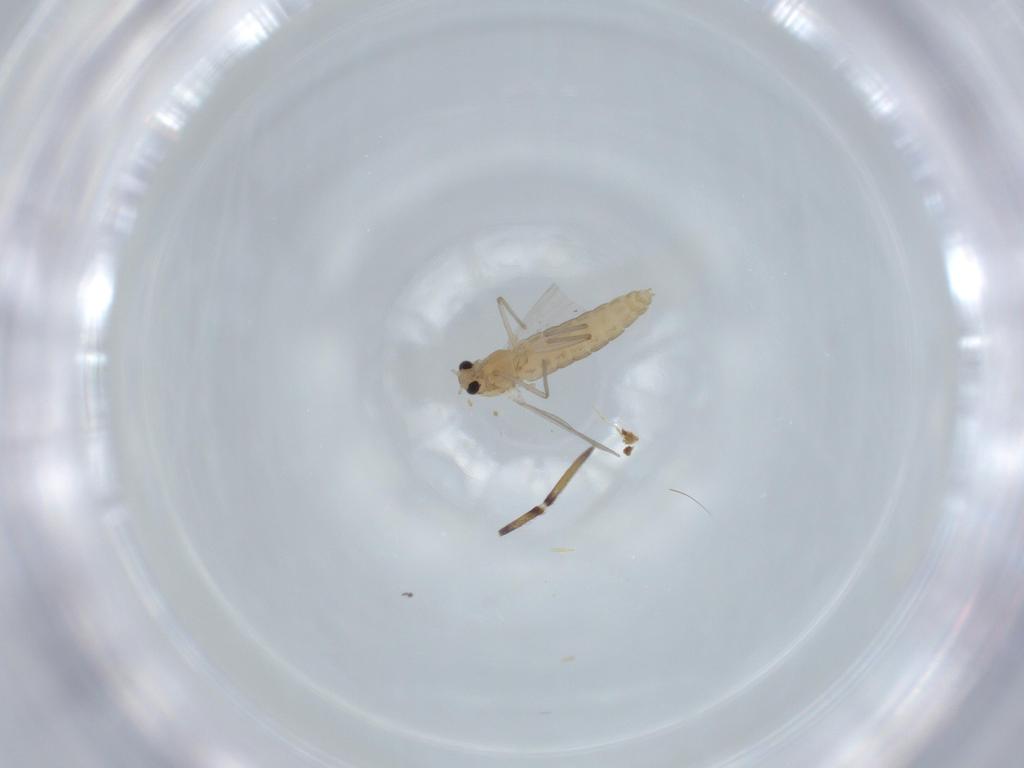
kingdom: Animalia
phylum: Arthropoda
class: Insecta
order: Diptera
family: Chironomidae
